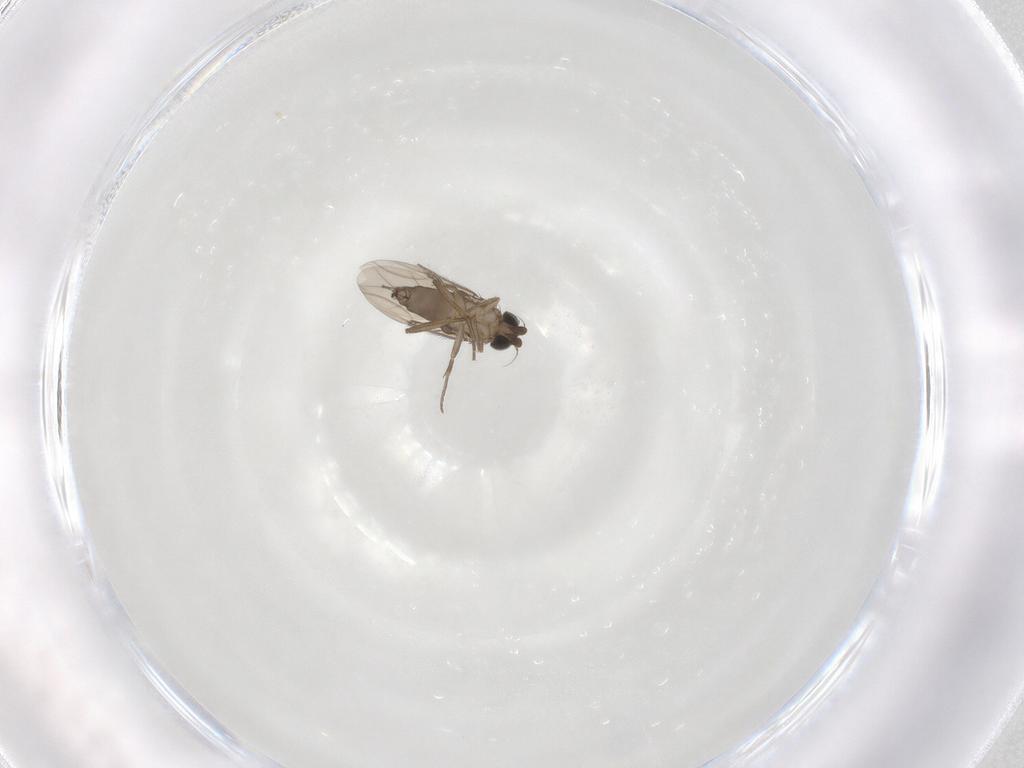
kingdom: Animalia
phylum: Arthropoda
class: Insecta
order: Diptera
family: Phoridae
